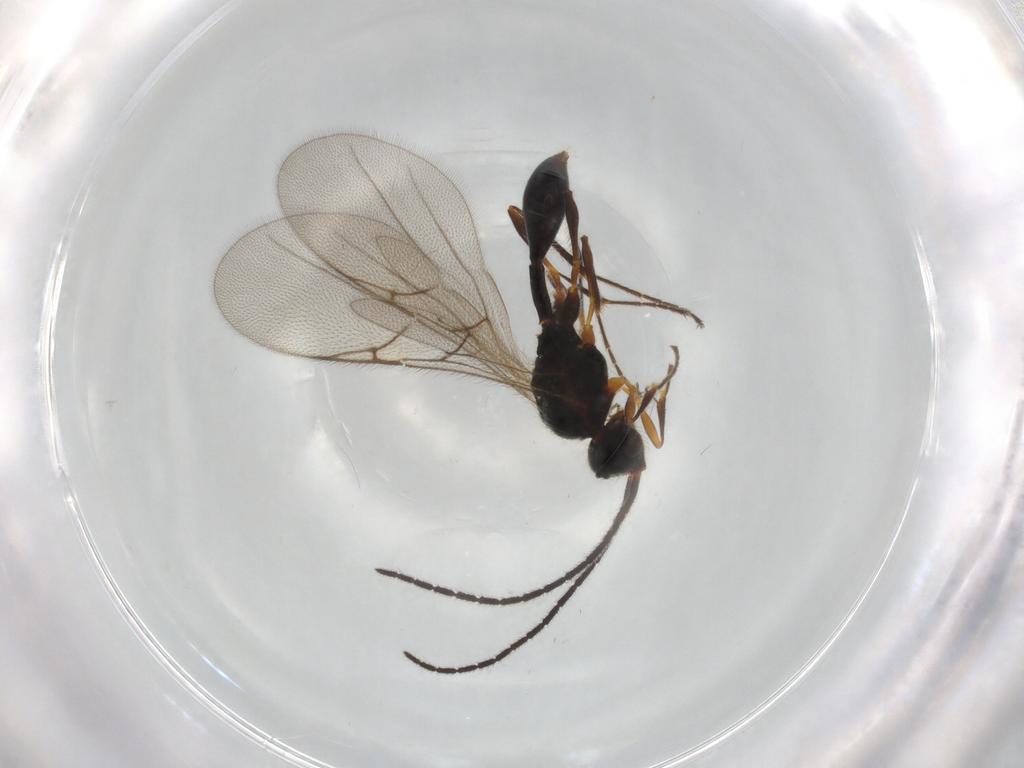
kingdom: Animalia
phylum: Arthropoda
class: Insecta
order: Hymenoptera
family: Diapriidae
